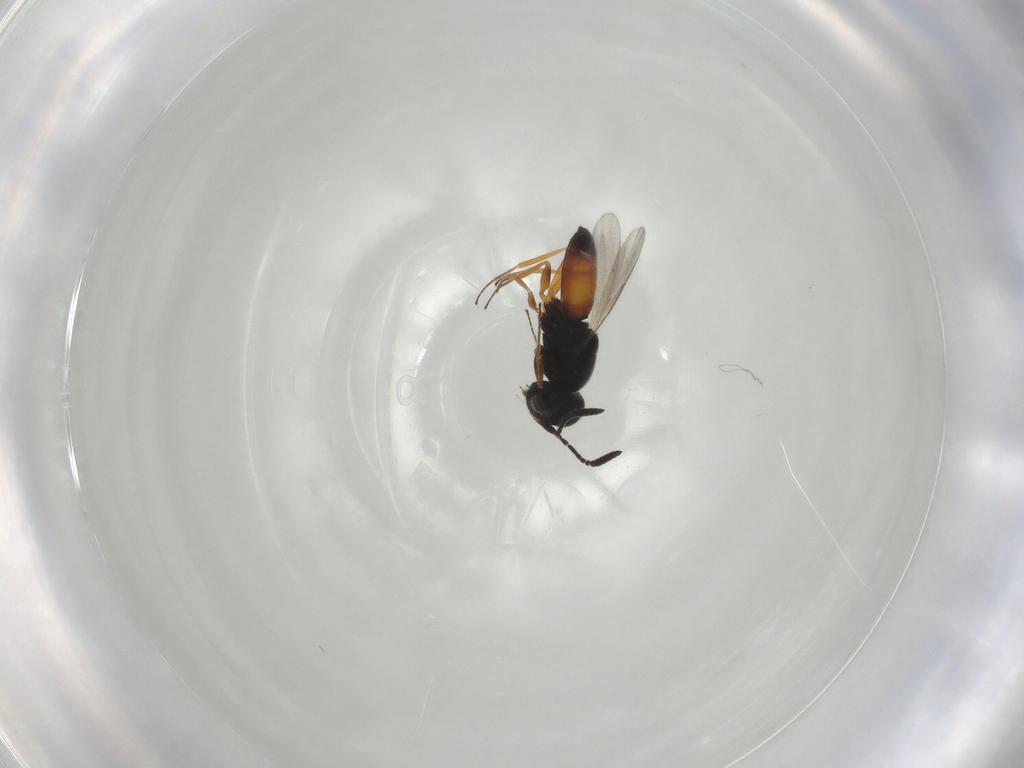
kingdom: Animalia
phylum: Arthropoda
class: Insecta
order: Hymenoptera
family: Scelionidae
